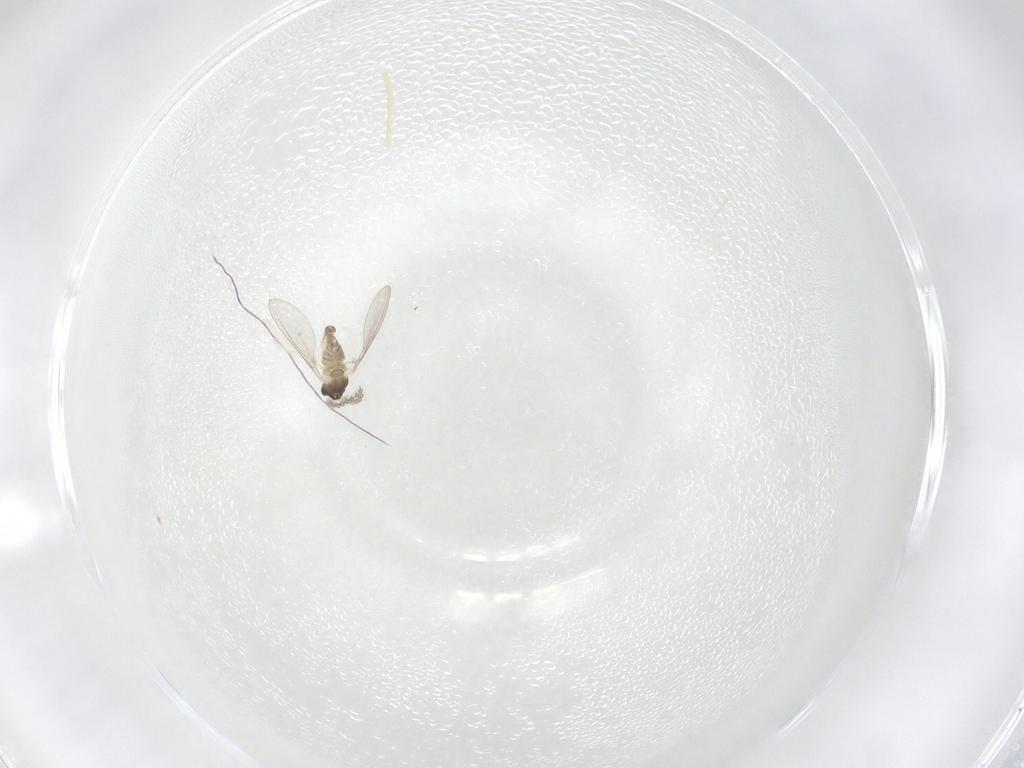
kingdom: Animalia
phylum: Arthropoda
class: Insecta
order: Diptera
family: Cecidomyiidae
